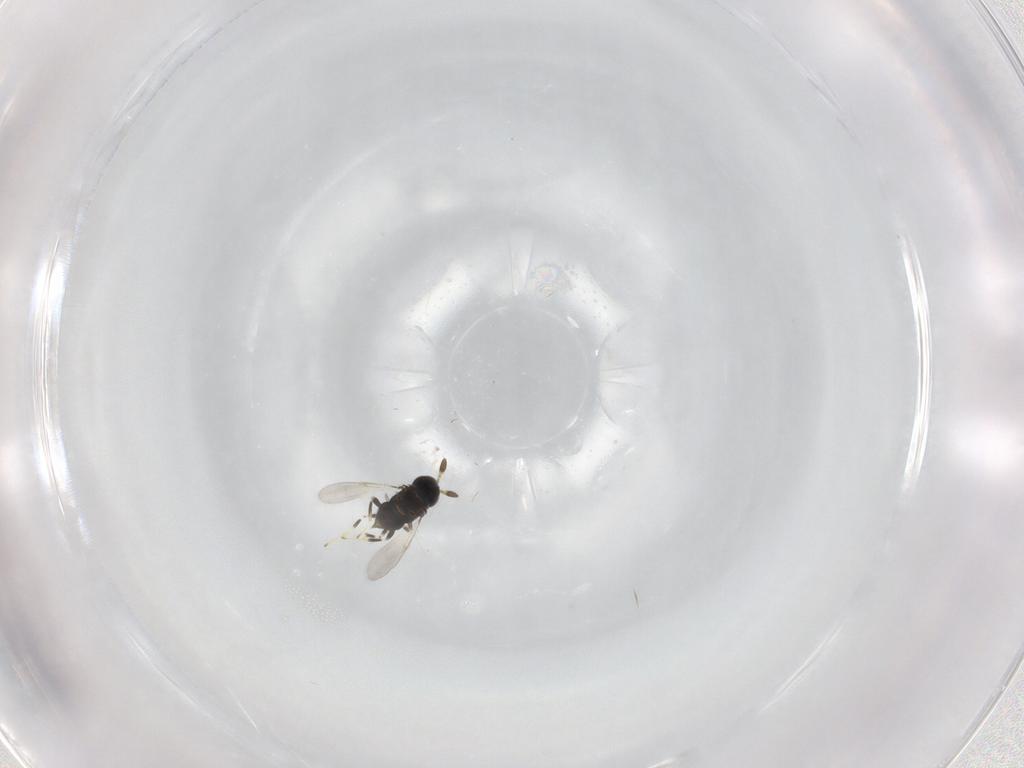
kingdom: Animalia
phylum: Arthropoda
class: Insecta
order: Hymenoptera
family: Encyrtidae
